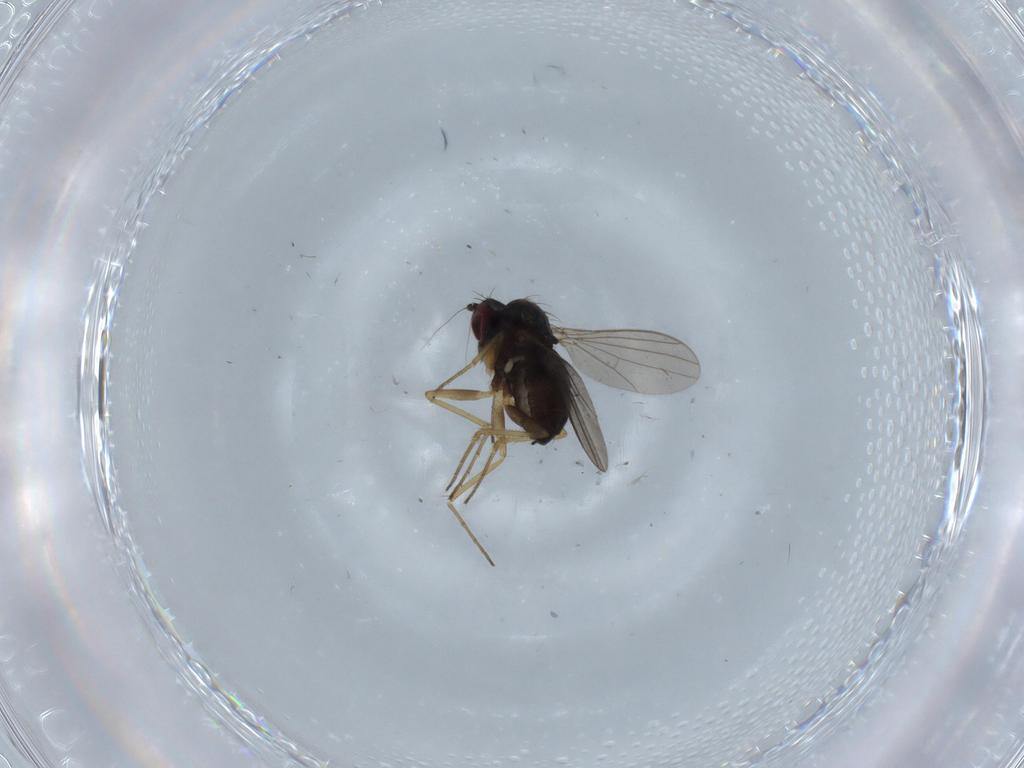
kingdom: Animalia
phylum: Arthropoda
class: Insecta
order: Diptera
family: Dolichopodidae
